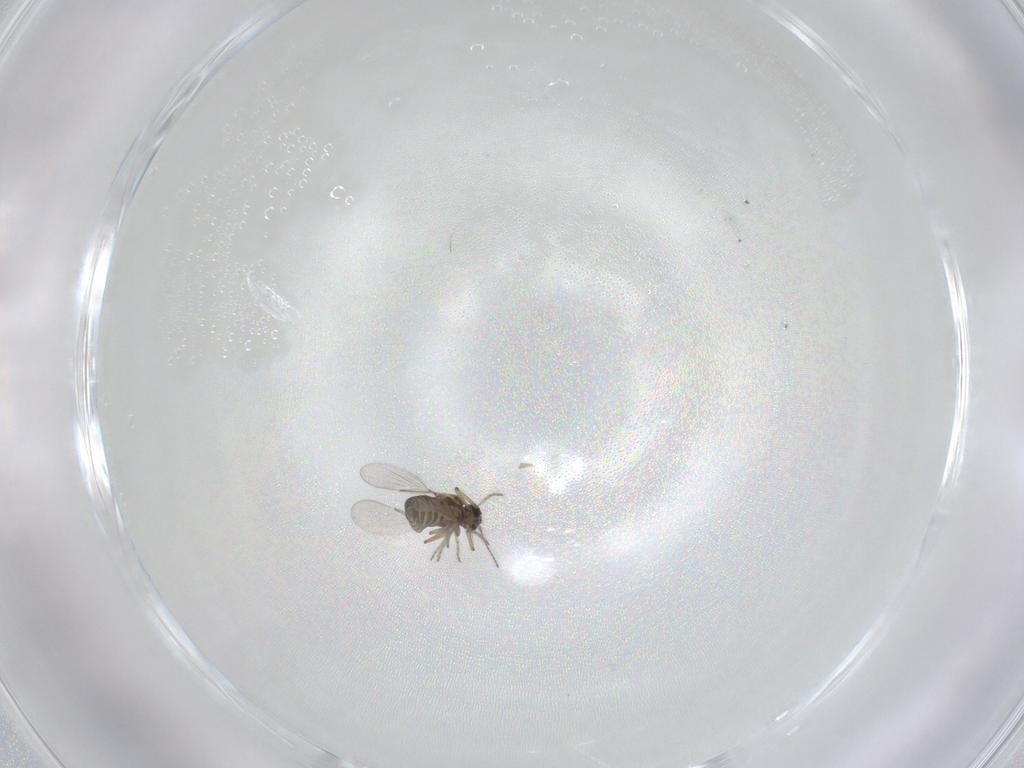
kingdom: Animalia
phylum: Arthropoda
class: Insecta
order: Diptera
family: Ceratopogonidae
